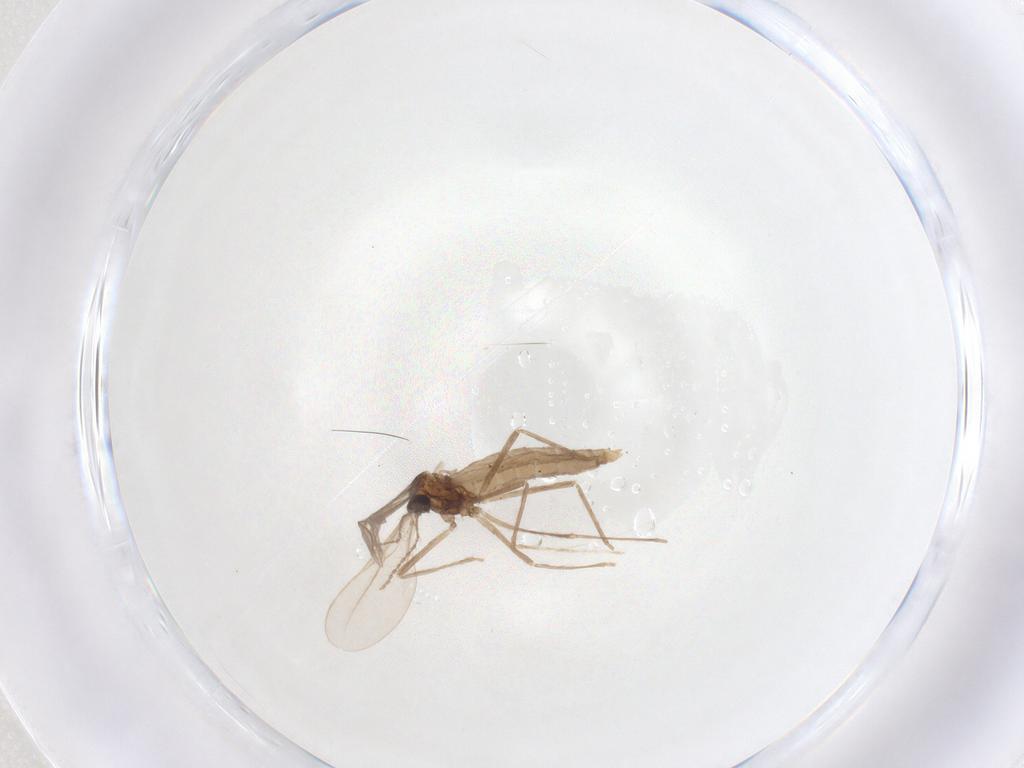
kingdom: Animalia
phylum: Arthropoda
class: Insecta
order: Diptera
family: Cecidomyiidae
